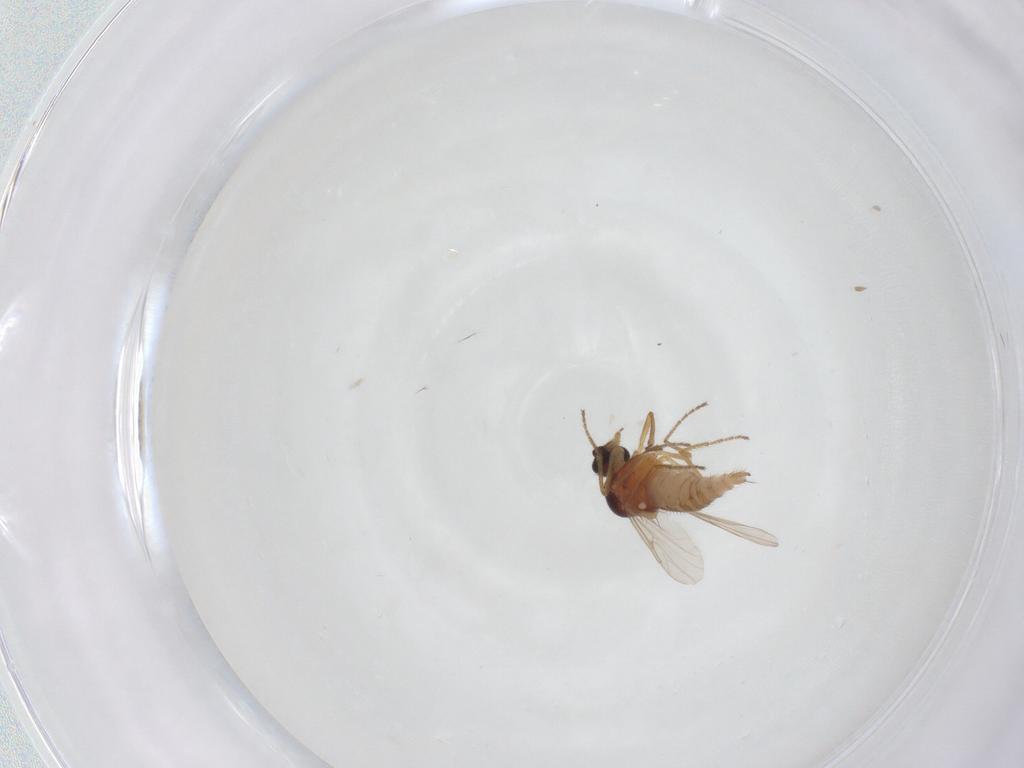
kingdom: Animalia
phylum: Arthropoda
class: Insecta
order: Diptera
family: Ceratopogonidae
